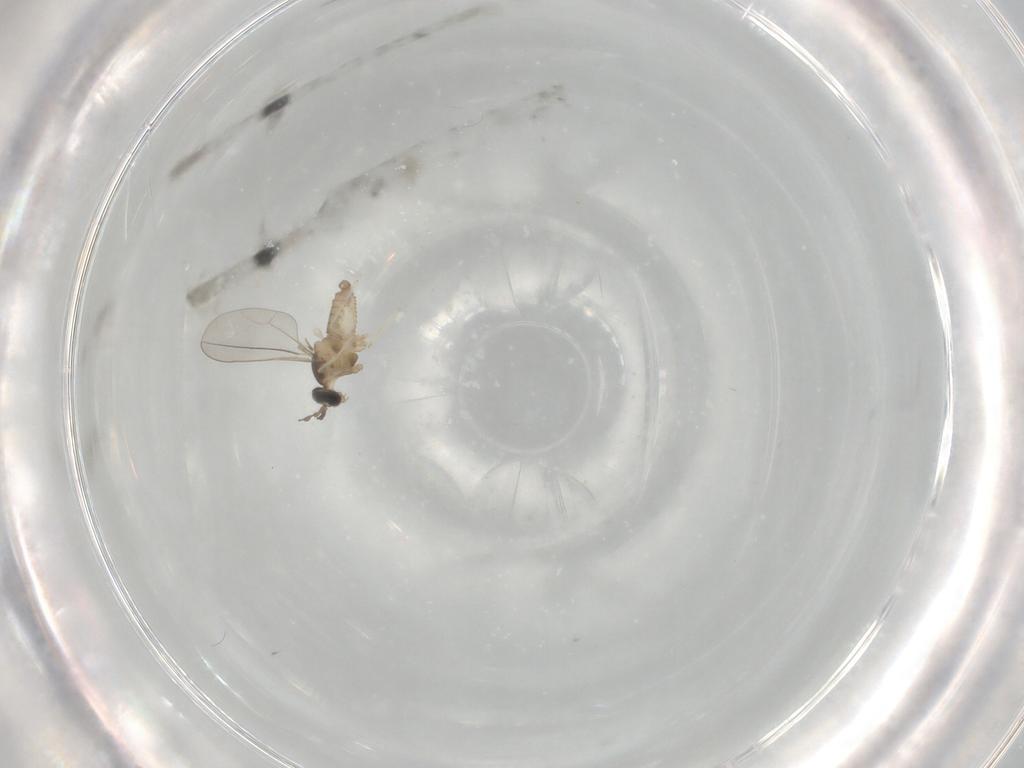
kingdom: Animalia
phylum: Arthropoda
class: Insecta
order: Diptera
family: Cecidomyiidae
